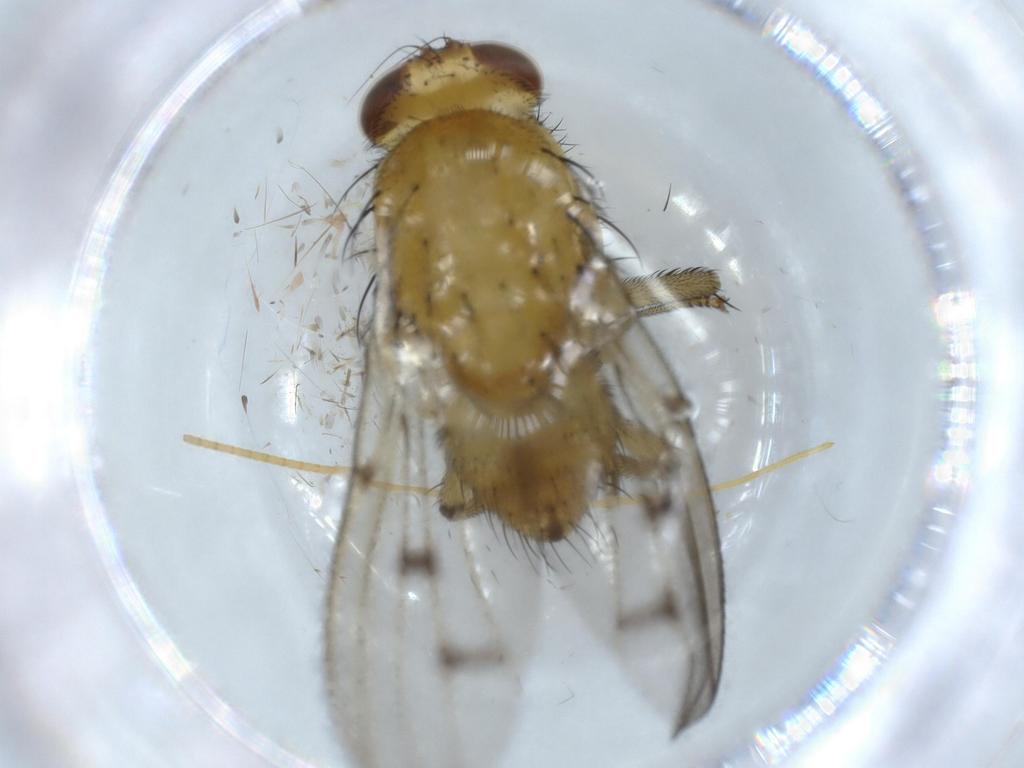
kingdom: Animalia
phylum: Arthropoda
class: Insecta
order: Diptera
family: Cecidomyiidae
